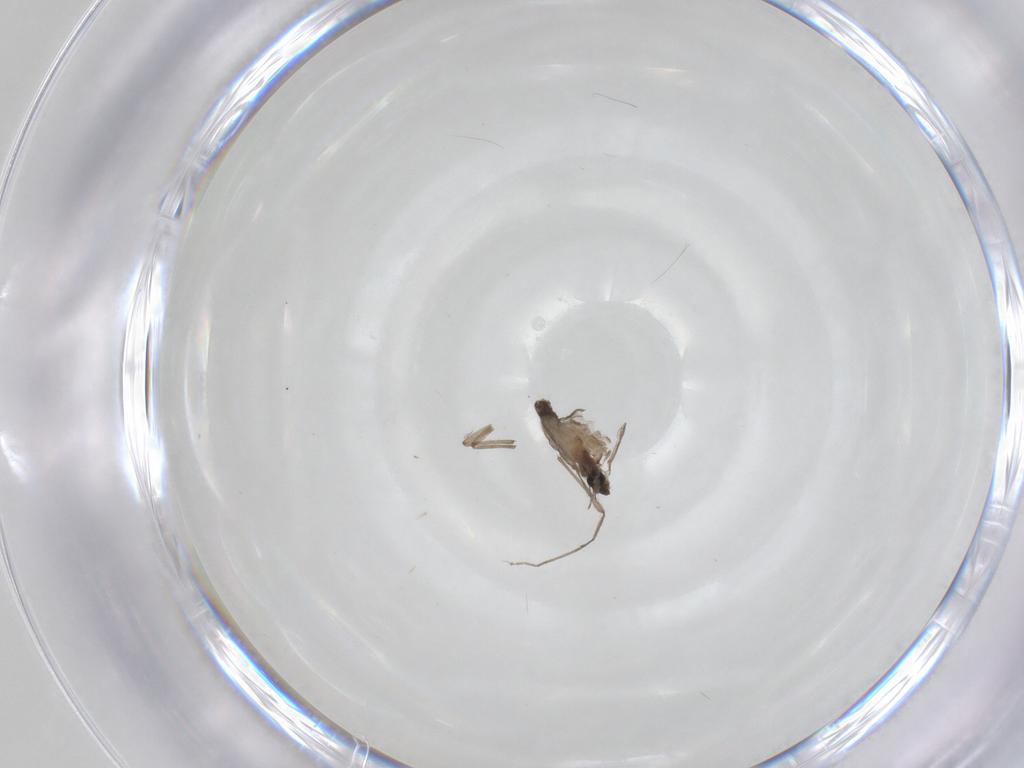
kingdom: Animalia
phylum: Arthropoda
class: Insecta
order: Diptera
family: Chironomidae
